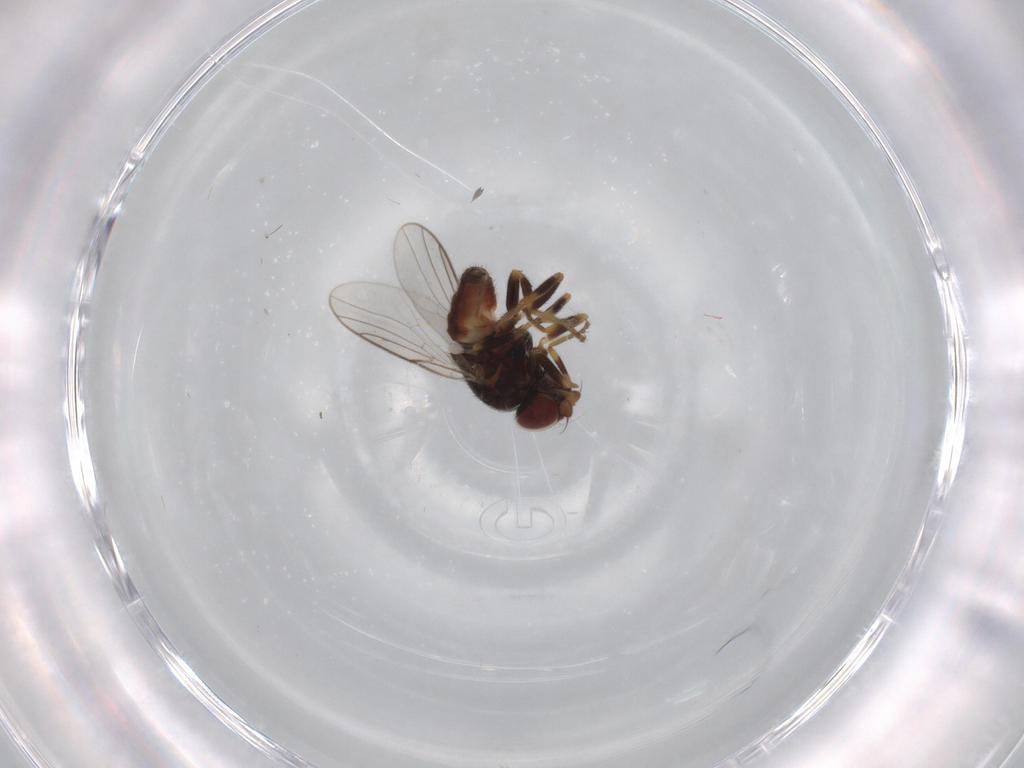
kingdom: Animalia
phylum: Arthropoda
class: Insecta
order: Diptera
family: Chloropidae
